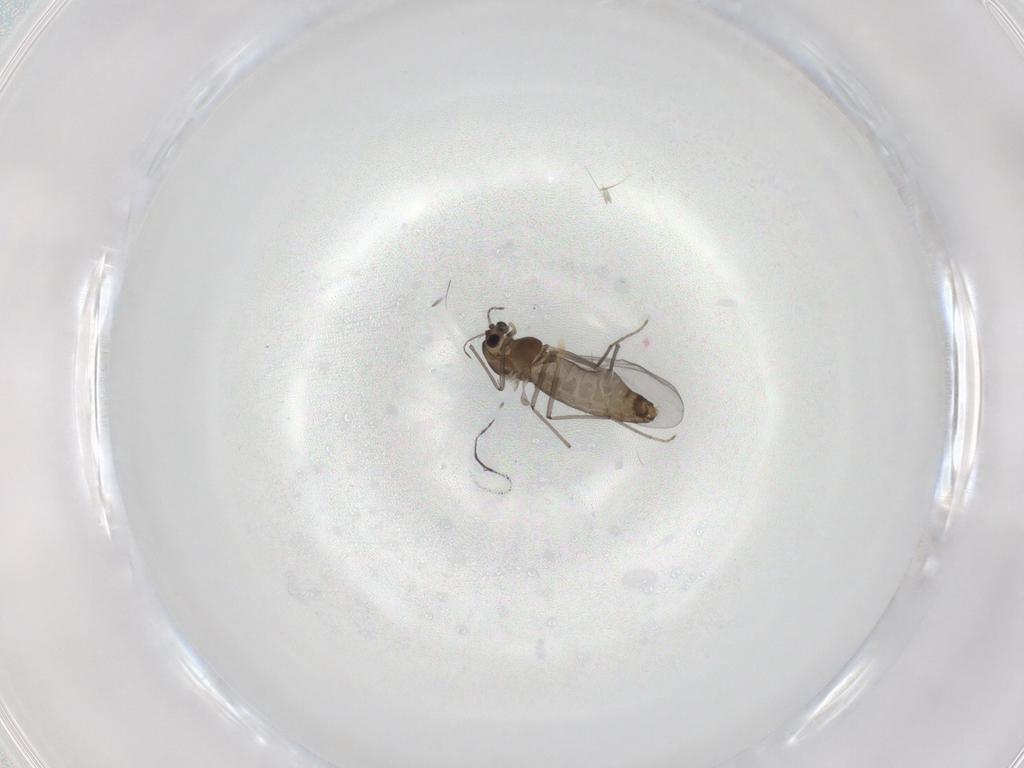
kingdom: Animalia
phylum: Arthropoda
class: Insecta
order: Diptera
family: Chironomidae
